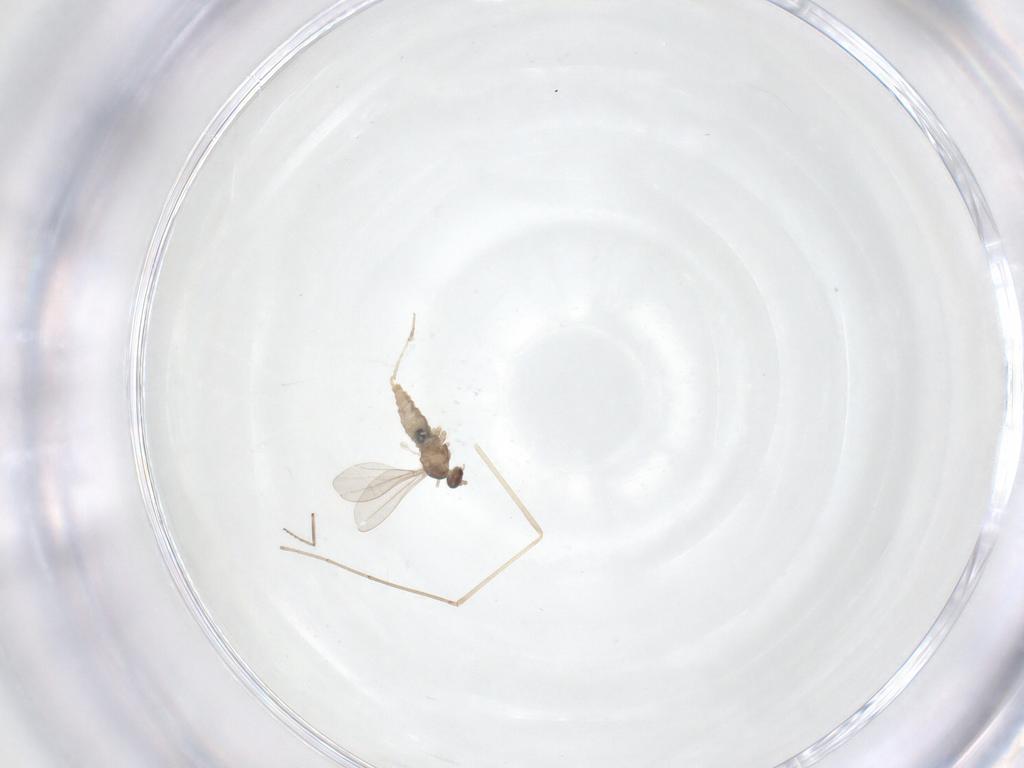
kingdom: Animalia
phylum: Arthropoda
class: Insecta
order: Diptera
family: Cecidomyiidae
